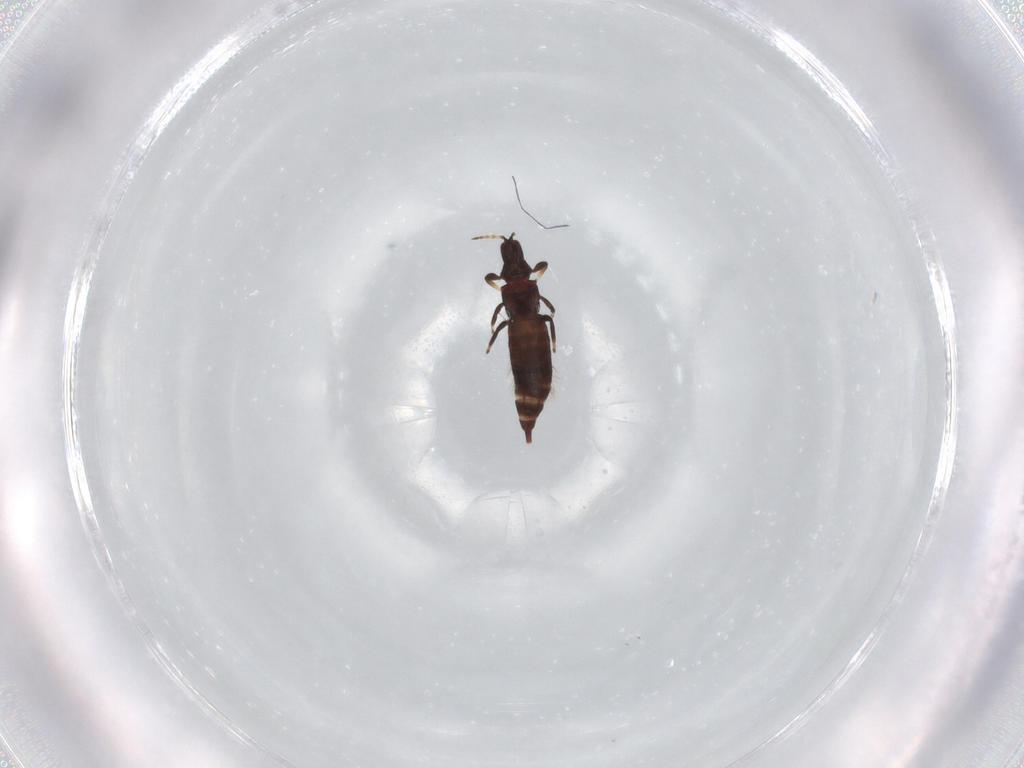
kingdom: Animalia
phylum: Arthropoda
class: Insecta
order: Thysanoptera
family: Phlaeothripidae
